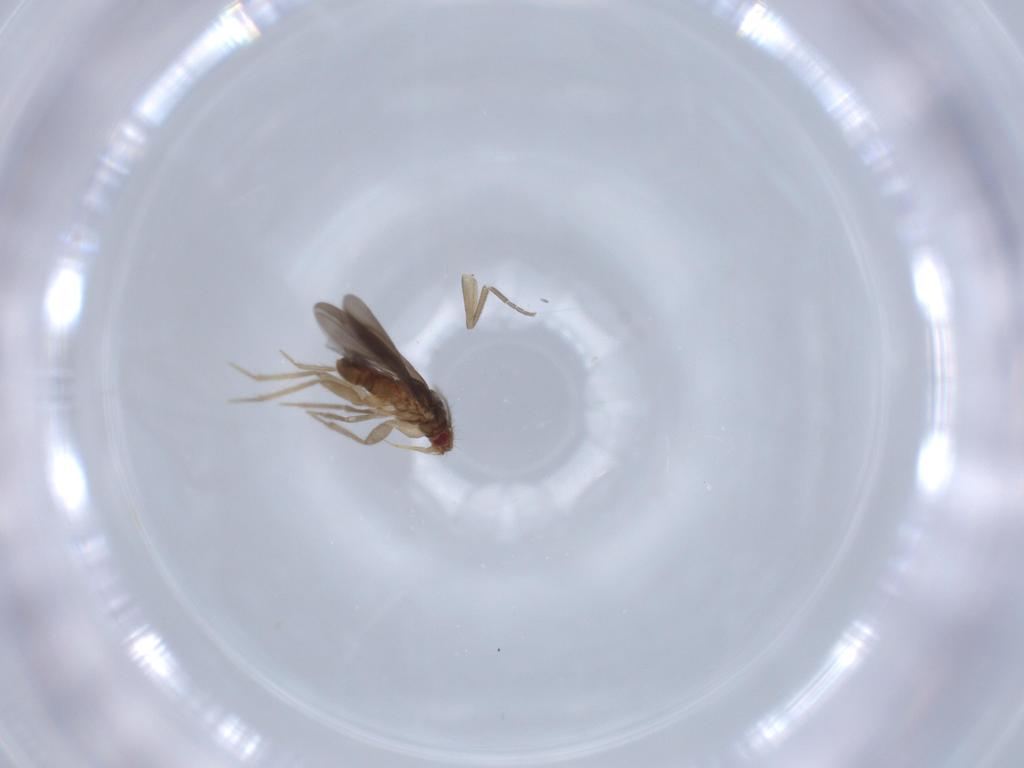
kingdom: Animalia
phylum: Arthropoda
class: Insecta
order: Hemiptera
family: Ceratocombidae
